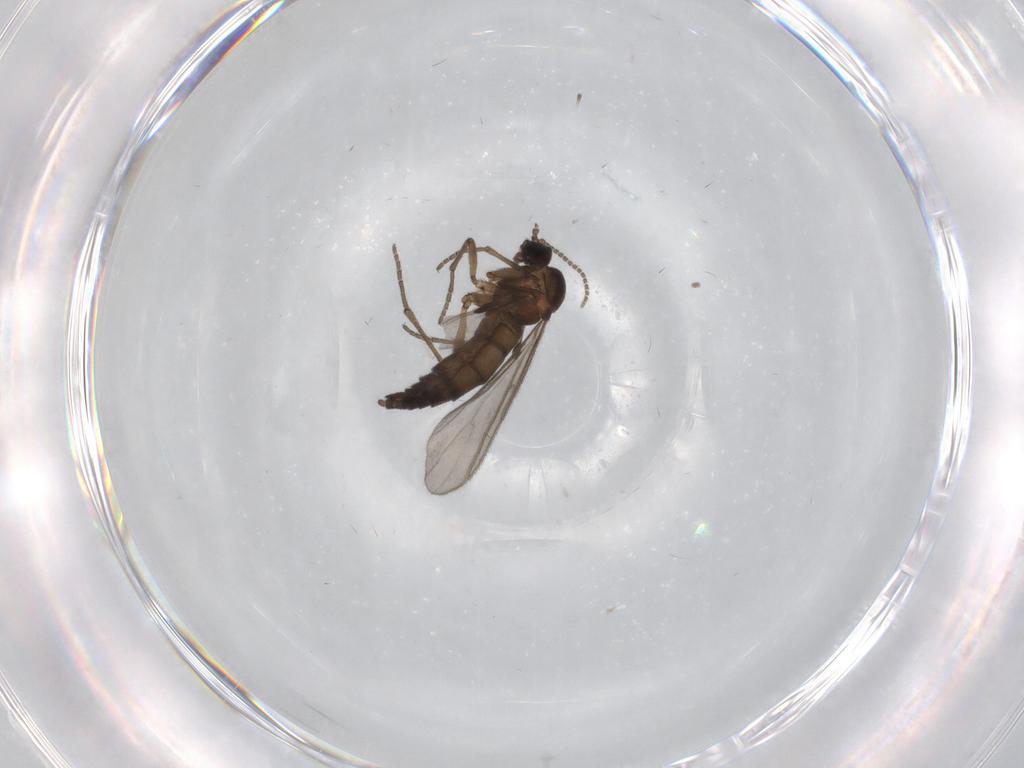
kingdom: Animalia
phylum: Arthropoda
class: Insecta
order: Diptera
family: Sciaridae
